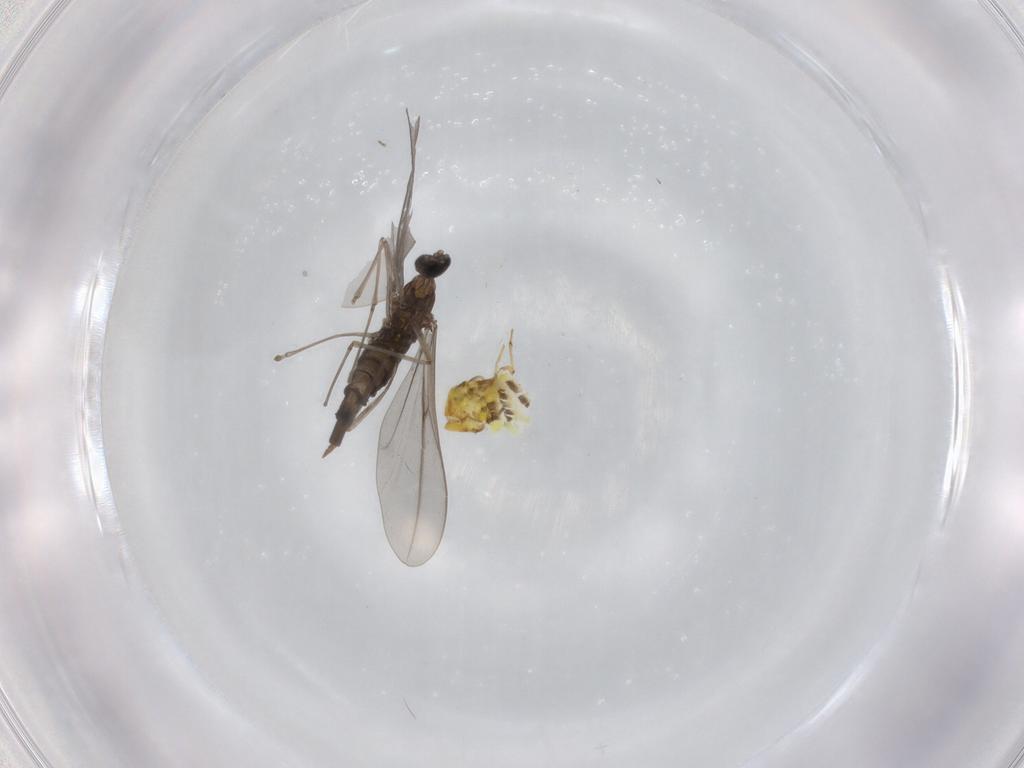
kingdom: Animalia
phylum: Arthropoda
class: Insecta
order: Diptera
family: Ceratopogonidae
